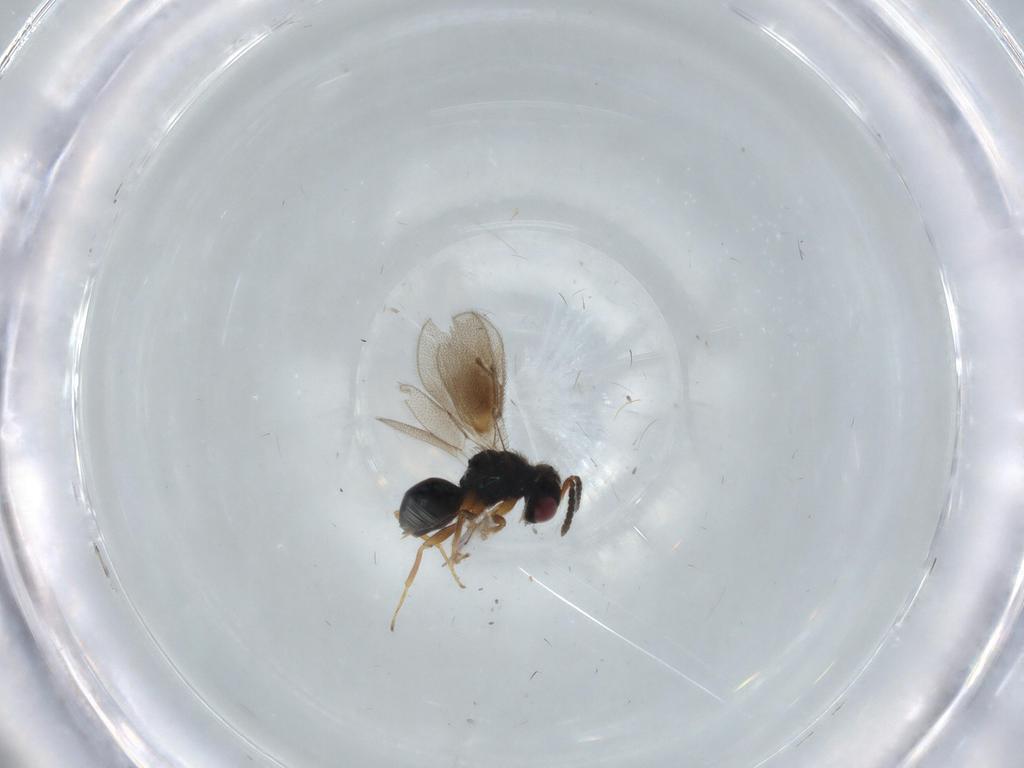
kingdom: Animalia
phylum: Arthropoda
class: Insecta
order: Hymenoptera
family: Pteromalidae
